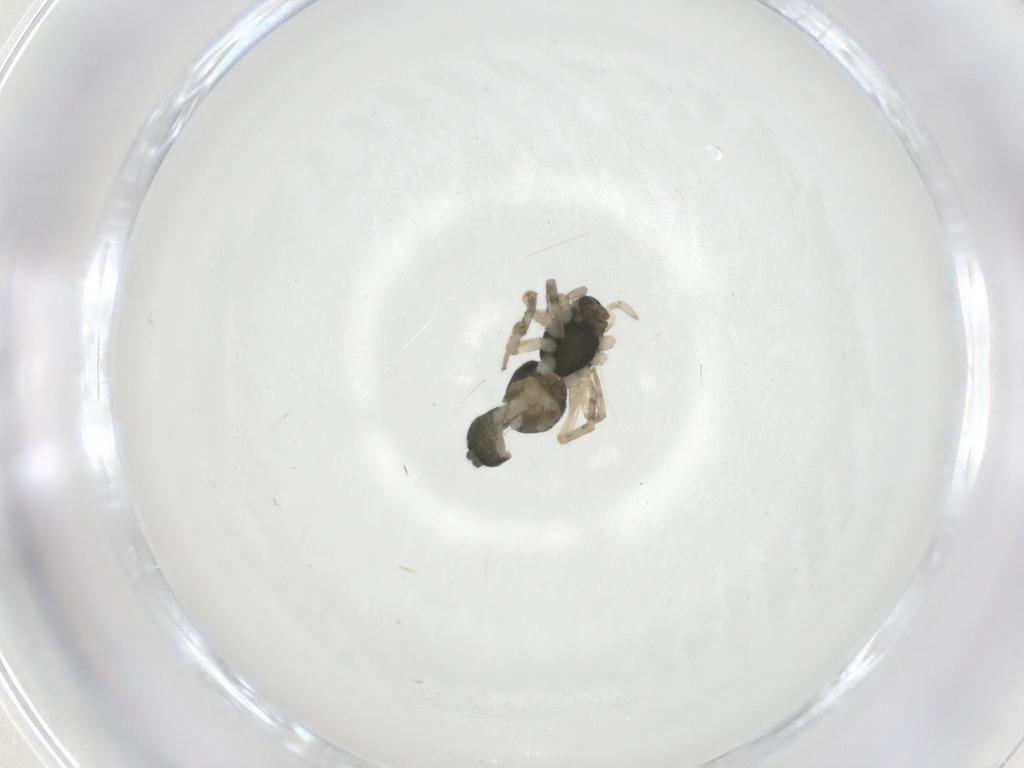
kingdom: Animalia
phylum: Arthropoda
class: Arachnida
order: Araneae
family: Trachelidae
